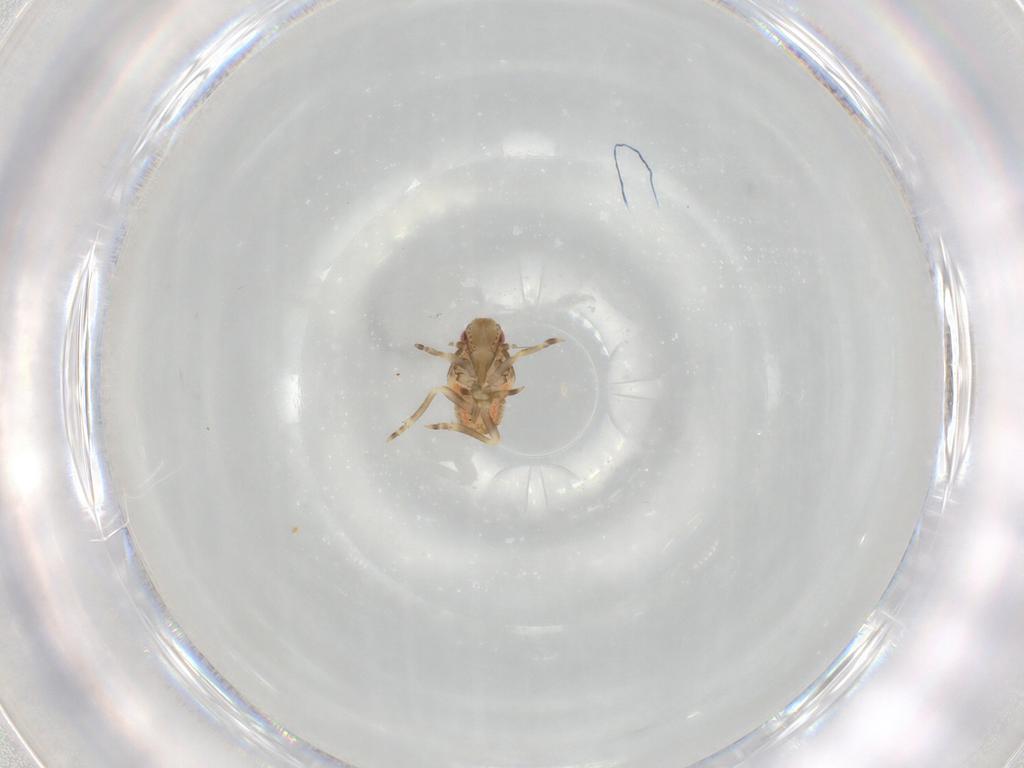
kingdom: Animalia
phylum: Arthropoda
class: Insecta
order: Hemiptera
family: Flatidae
